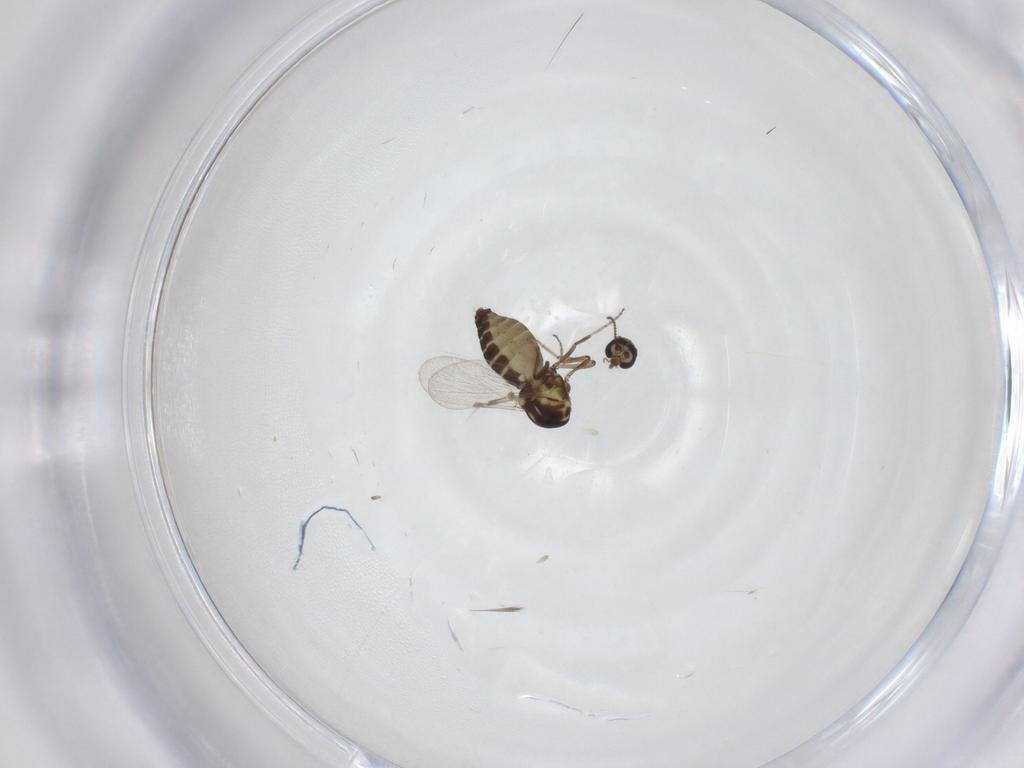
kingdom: Animalia
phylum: Arthropoda
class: Insecta
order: Diptera
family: Ceratopogonidae
